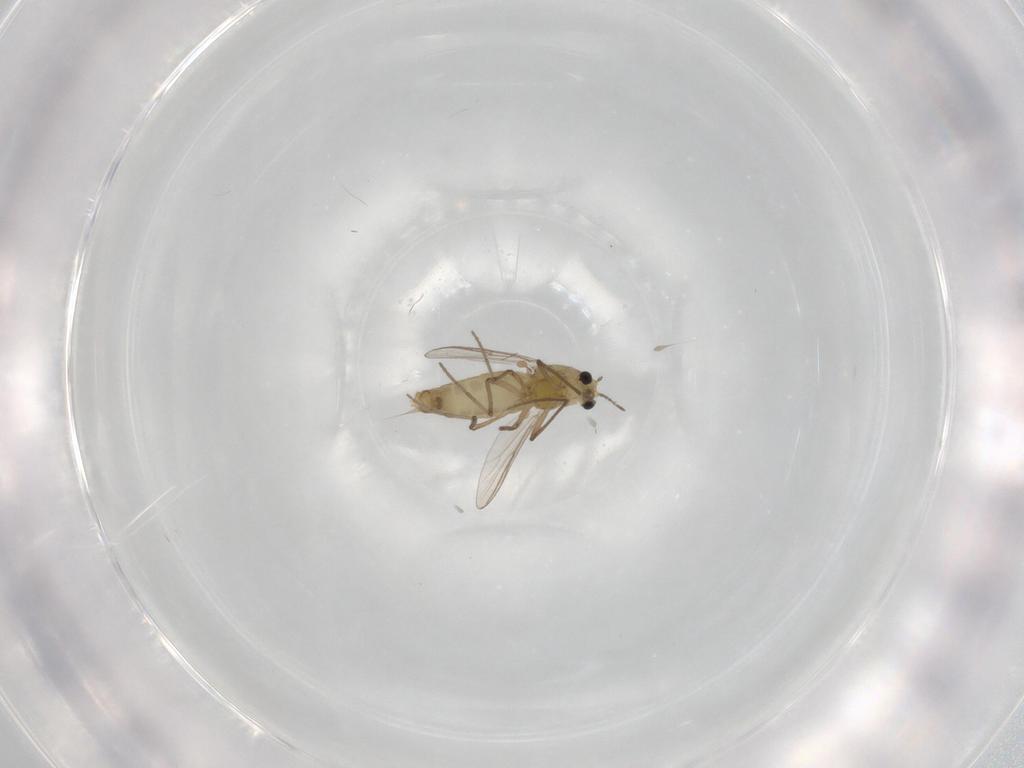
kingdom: Animalia
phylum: Arthropoda
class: Insecta
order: Diptera
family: Chironomidae
